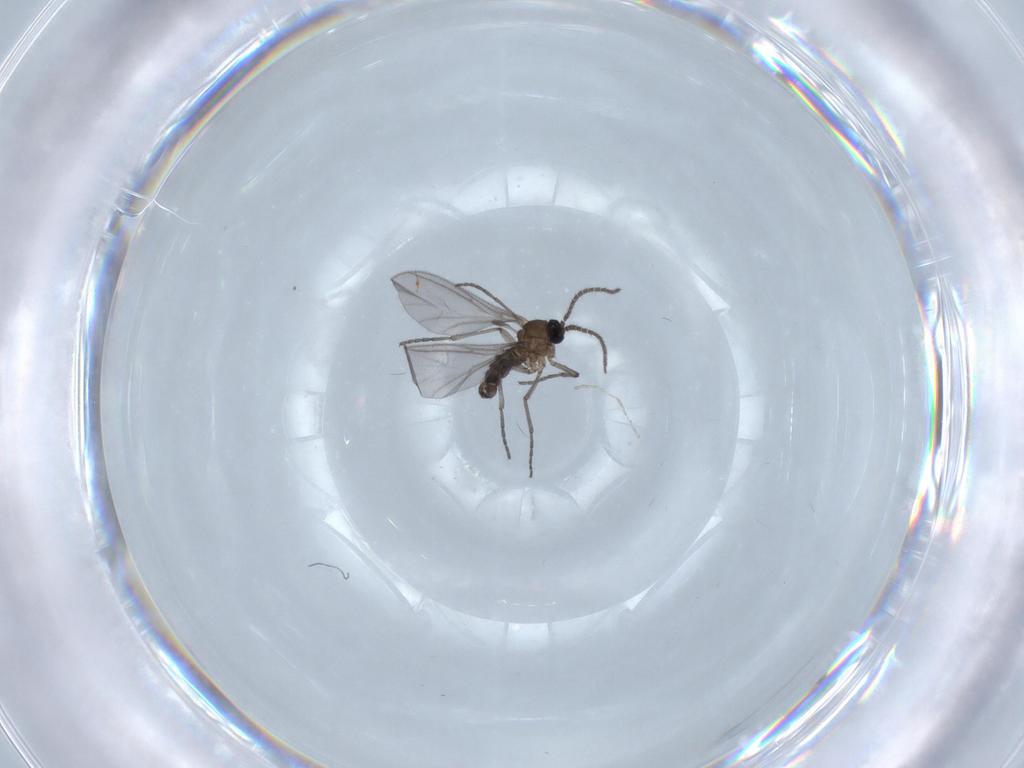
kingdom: Animalia
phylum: Arthropoda
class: Insecta
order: Diptera
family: Sciaridae
